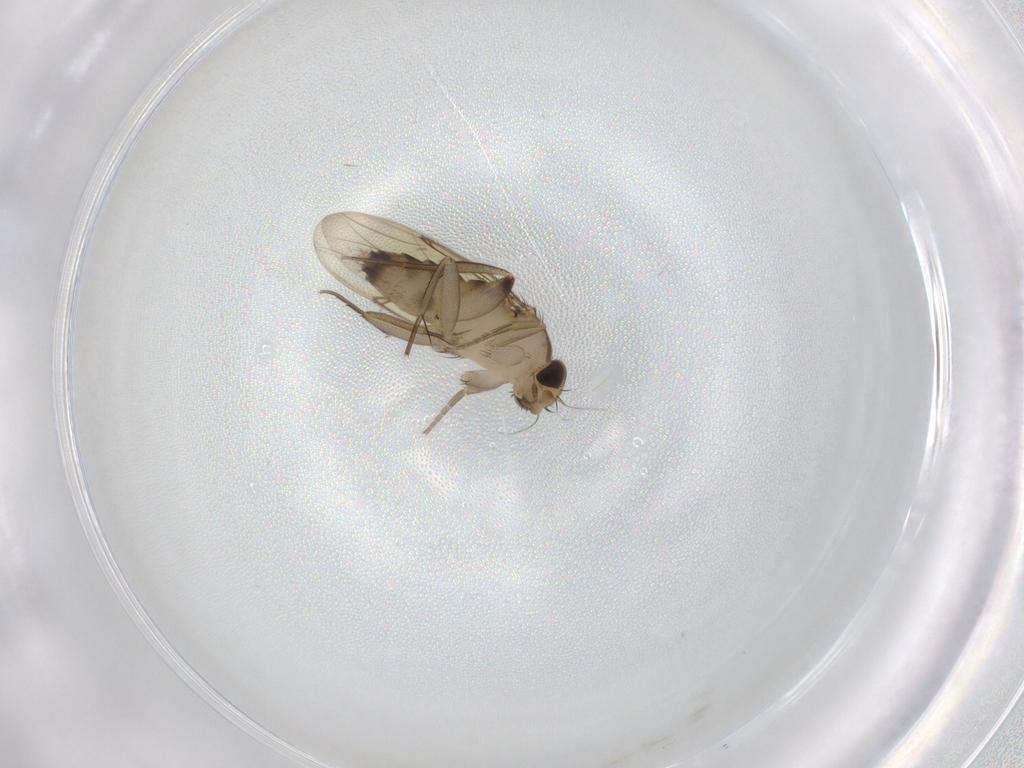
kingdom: Animalia
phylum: Arthropoda
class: Insecta
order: Diptera
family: Phoridae
